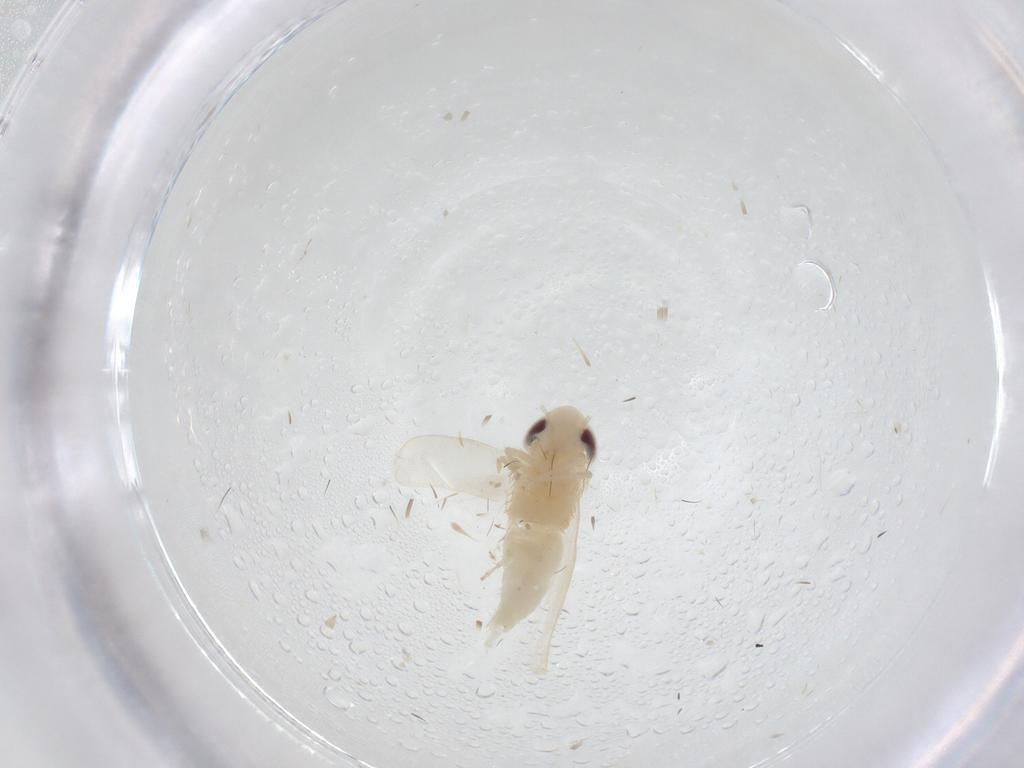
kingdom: Animalia
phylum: Arthropoda
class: Insecta
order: Hemiptera
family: Cicadellidae
